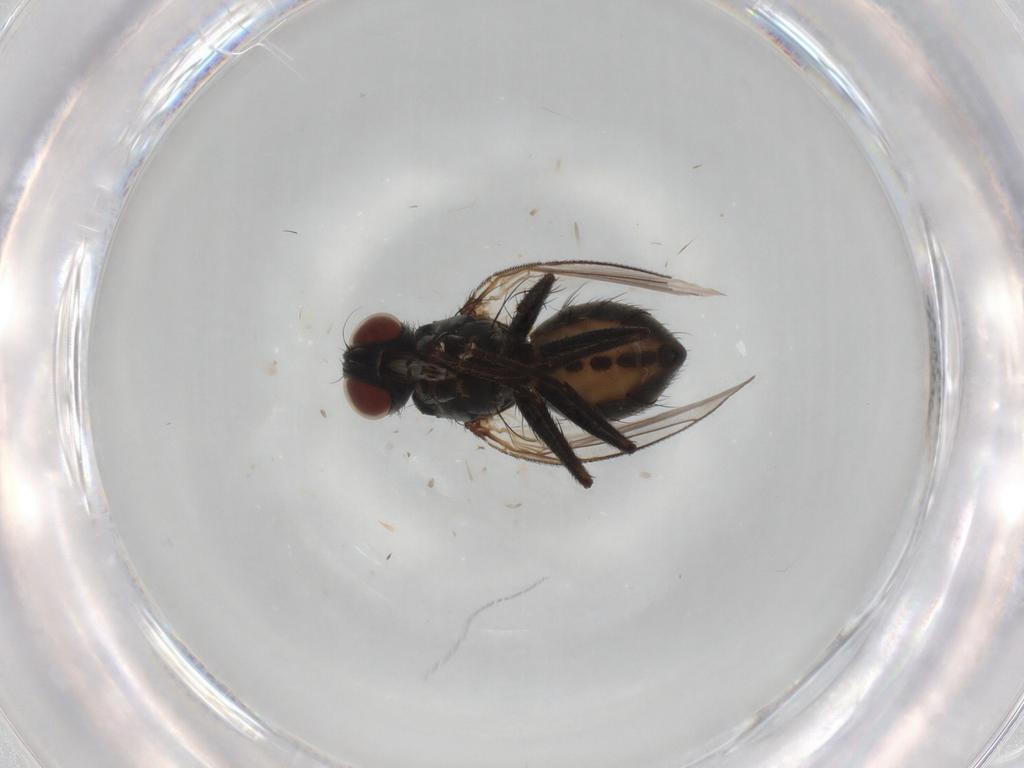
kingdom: Animalia
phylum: Arthropoda
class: Insecta
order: Diptera
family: Muscidae
